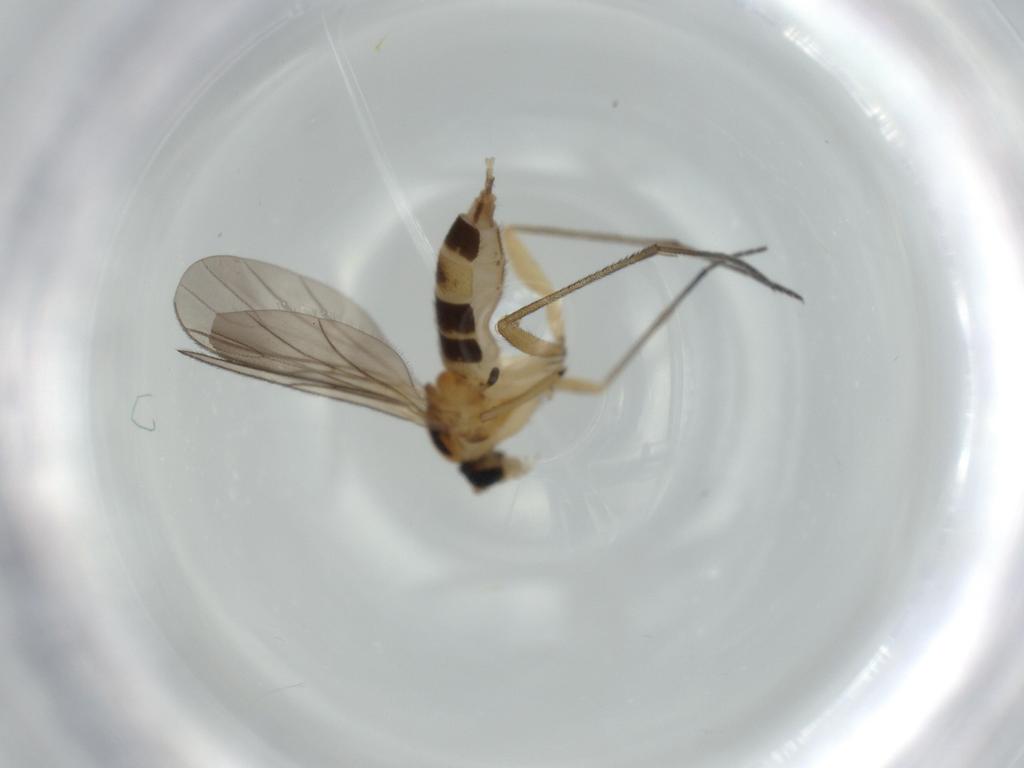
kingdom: Animalia
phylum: Arthropoda
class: Insecta
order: Diptera
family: Sciaridae
